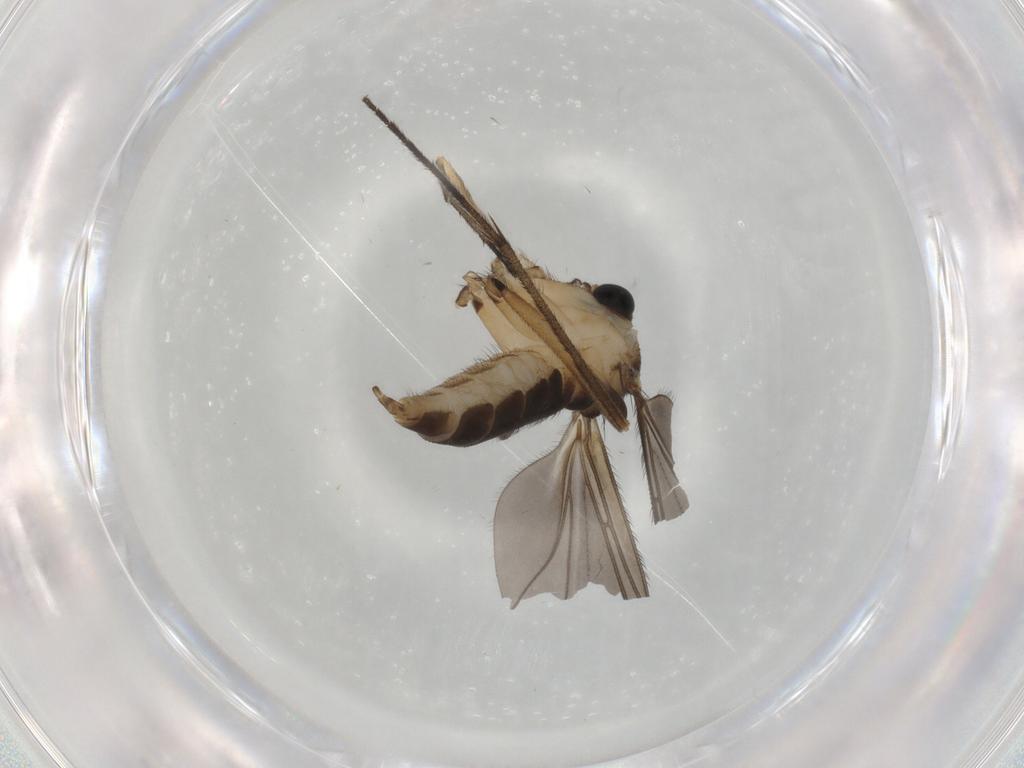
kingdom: Animalia
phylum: Arthropoda
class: Insecta
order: Diptera
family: Sciaridae
